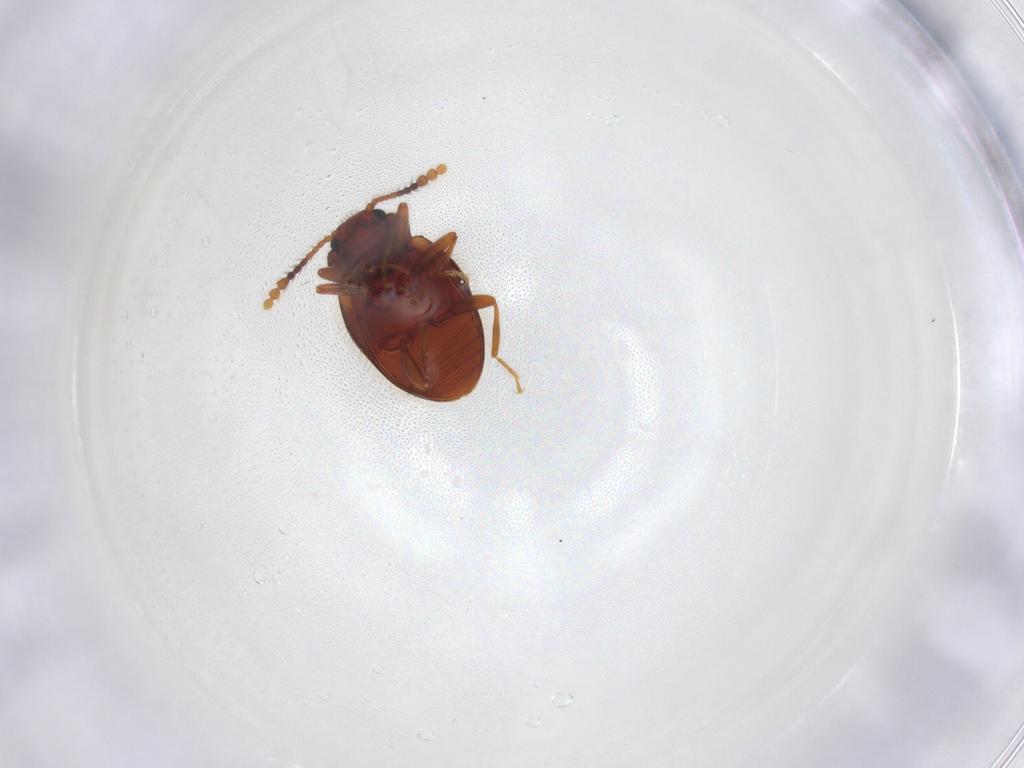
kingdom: Animalia
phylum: Arthropoda
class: Insecta
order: Coleoptera
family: Erotylidae
